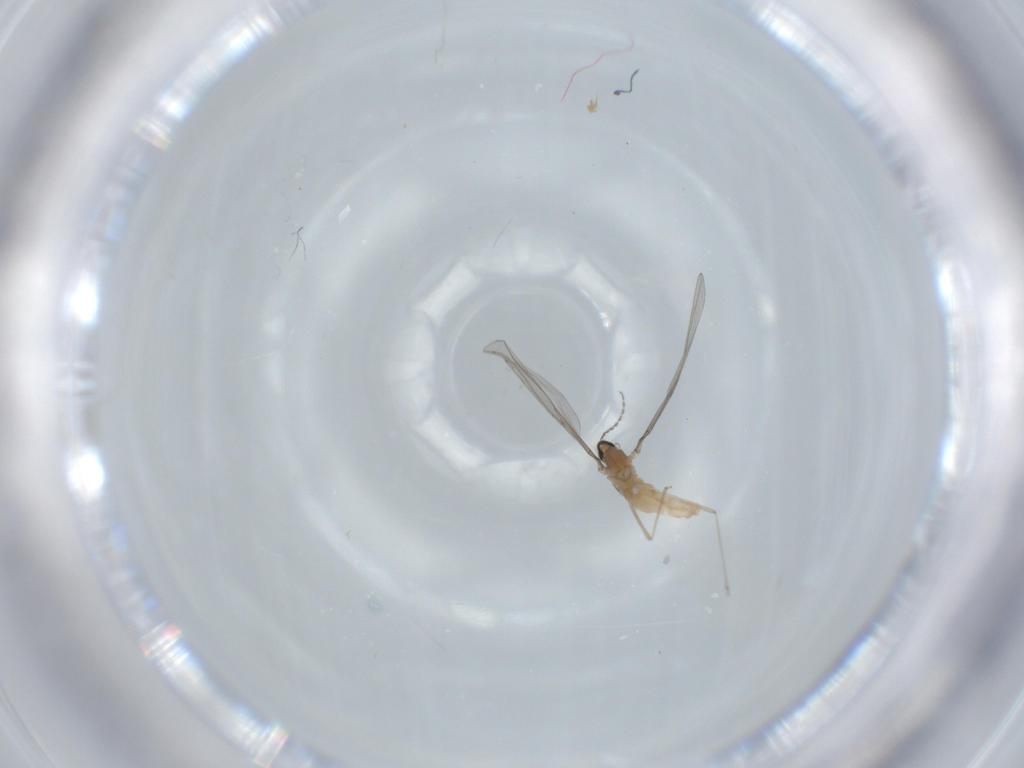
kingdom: Animalia
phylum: Arthropoda
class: Insecta
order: Diptera
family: Cecidomyiidae
